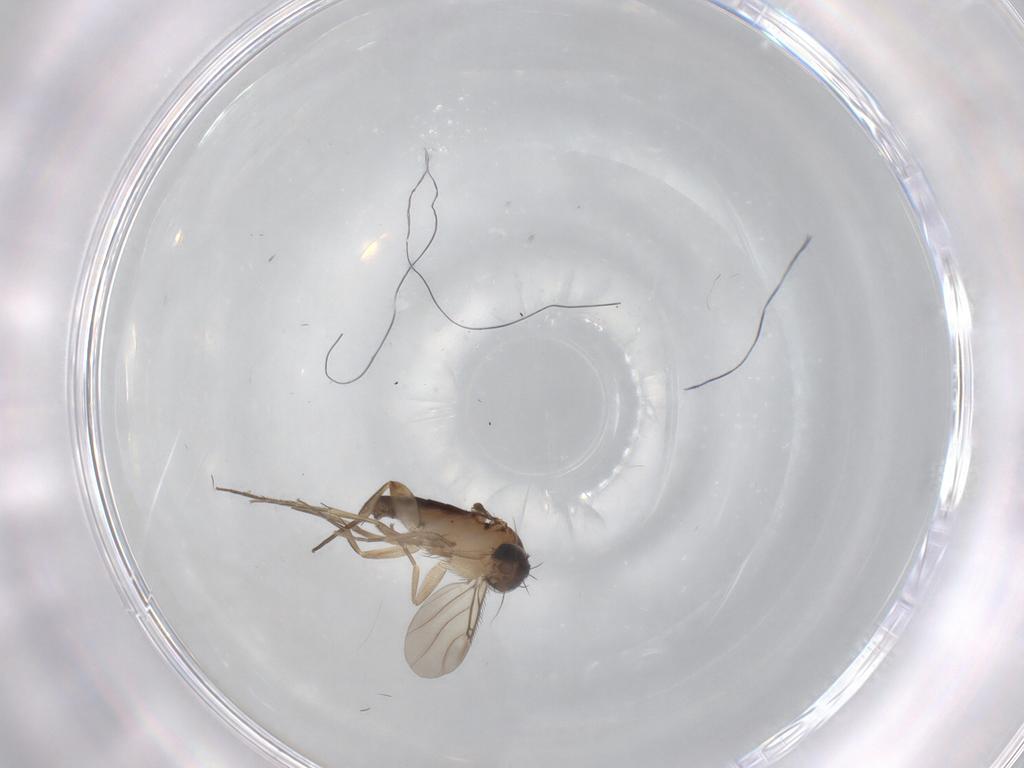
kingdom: Animalia
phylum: Arthropoda
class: Insecta
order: Diptera
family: Phoridae
